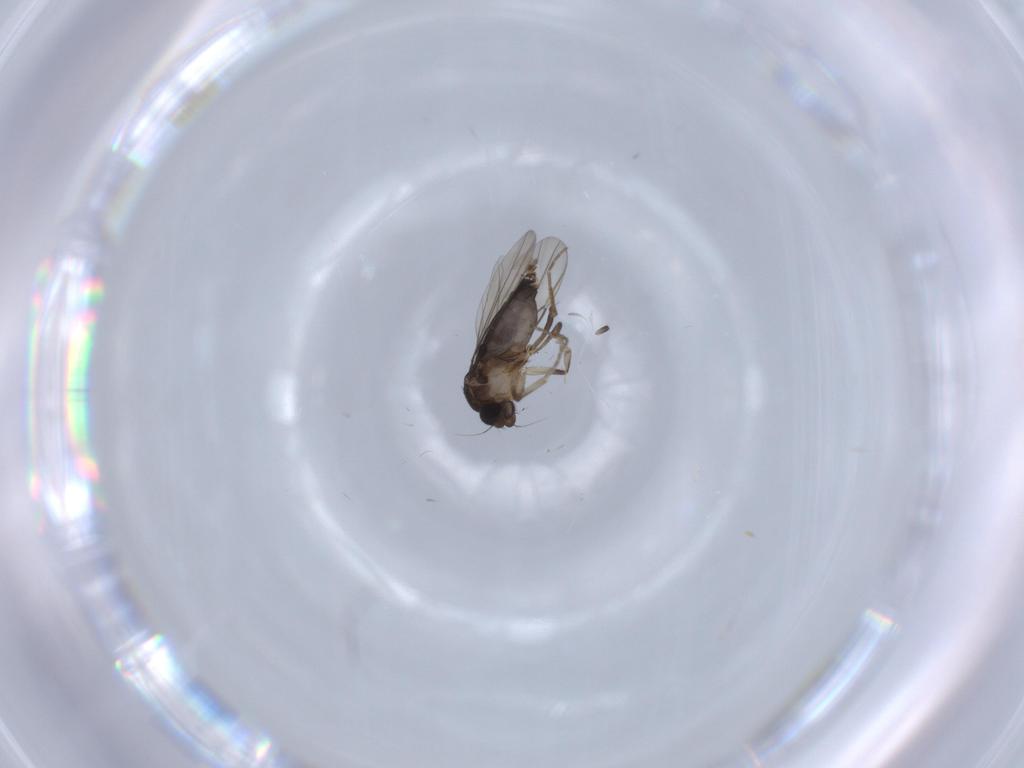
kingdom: Animalia
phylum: Arthropoda
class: Insecta
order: Diptera
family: Phoridae
